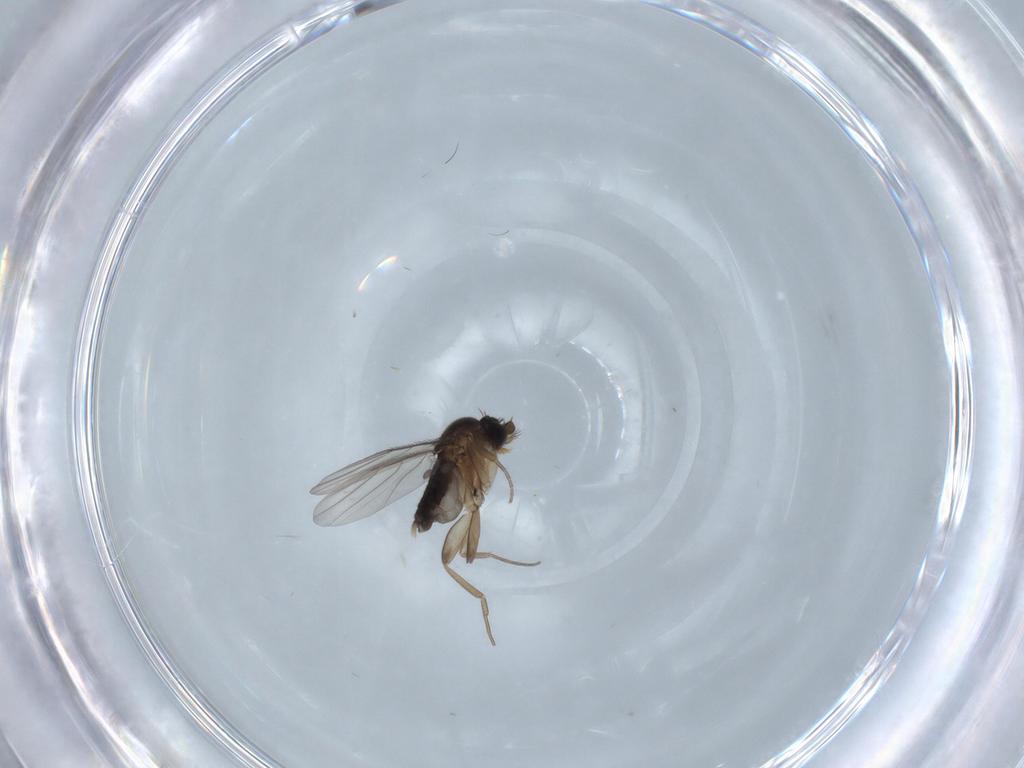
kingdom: Animalia
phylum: Arthropoda
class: Insecta
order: Diptera
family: Phoridae
